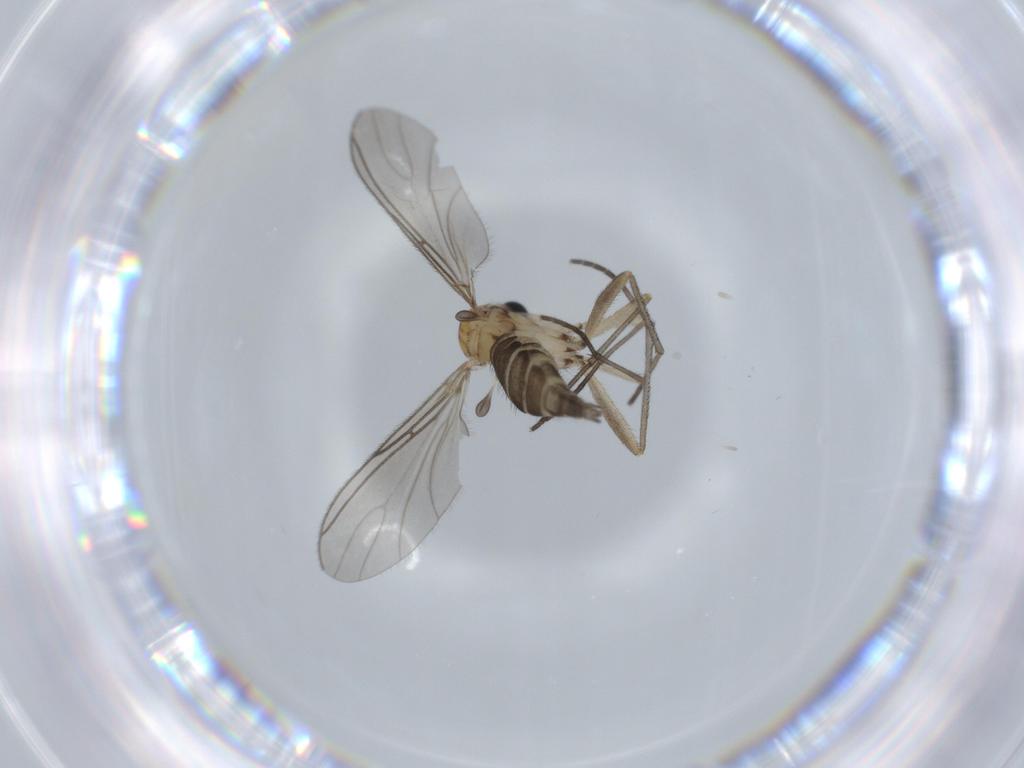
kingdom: Animalia
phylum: Arthropoda
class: Insecta
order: Diptera
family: Sciaridae
